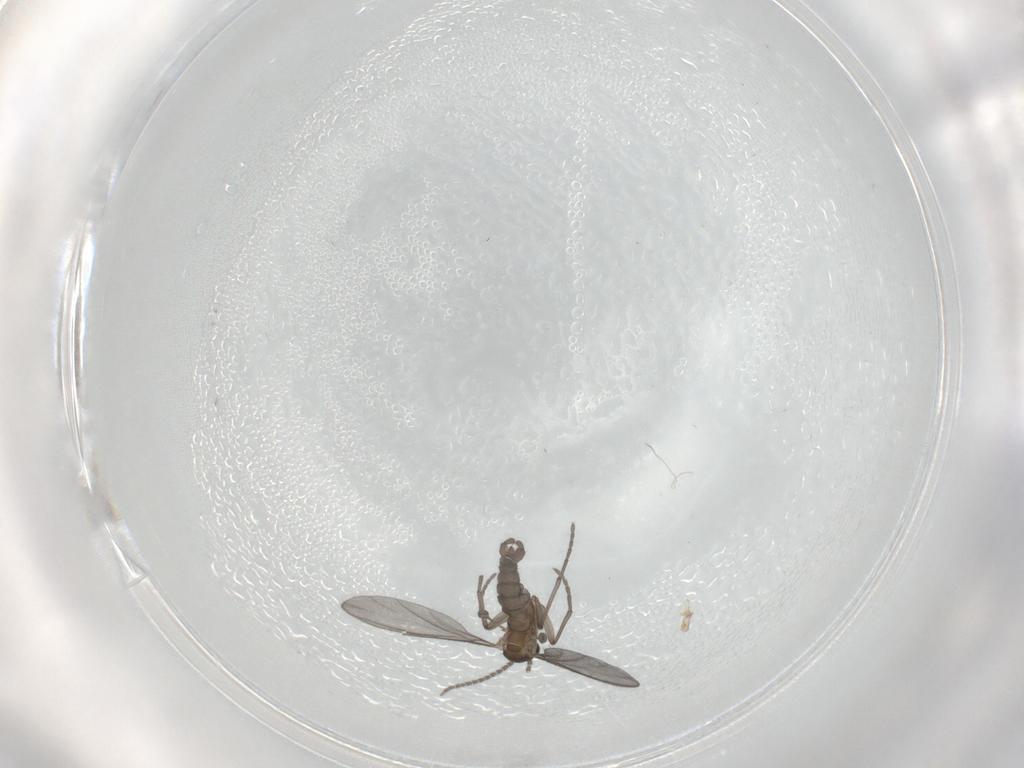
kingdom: Animalia
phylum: Arthropoda
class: Insecta
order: Diptera
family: Sciaridae
